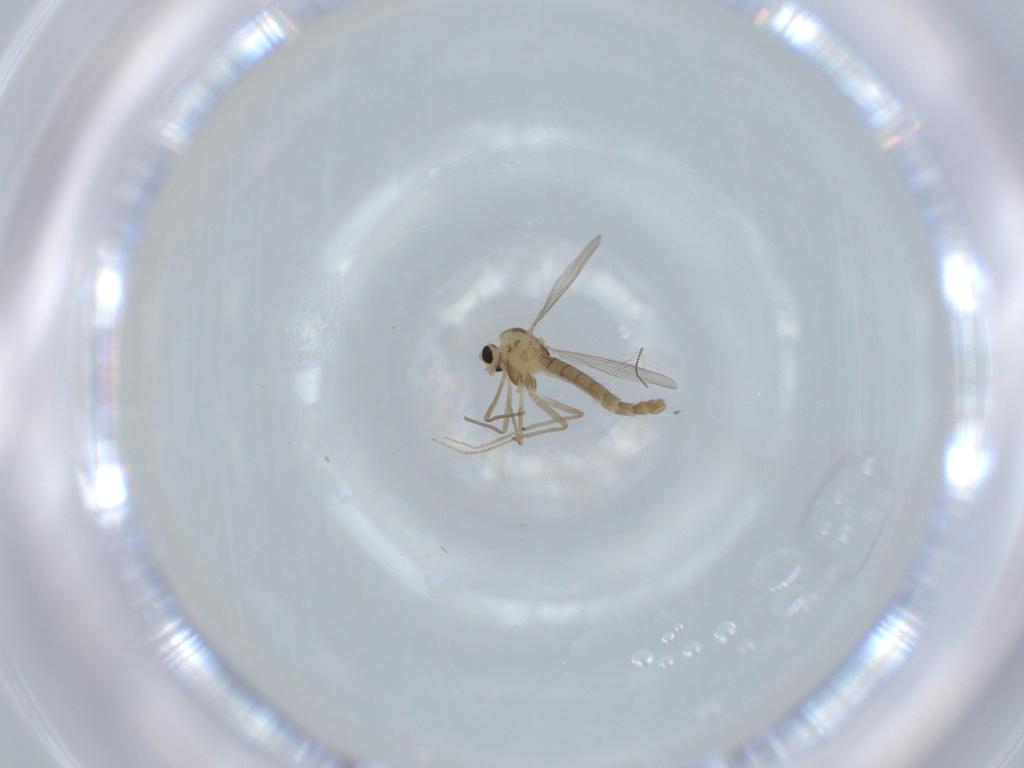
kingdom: Animalia
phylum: Arthropoda
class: Insecta
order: Diptera
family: Chironomidae
